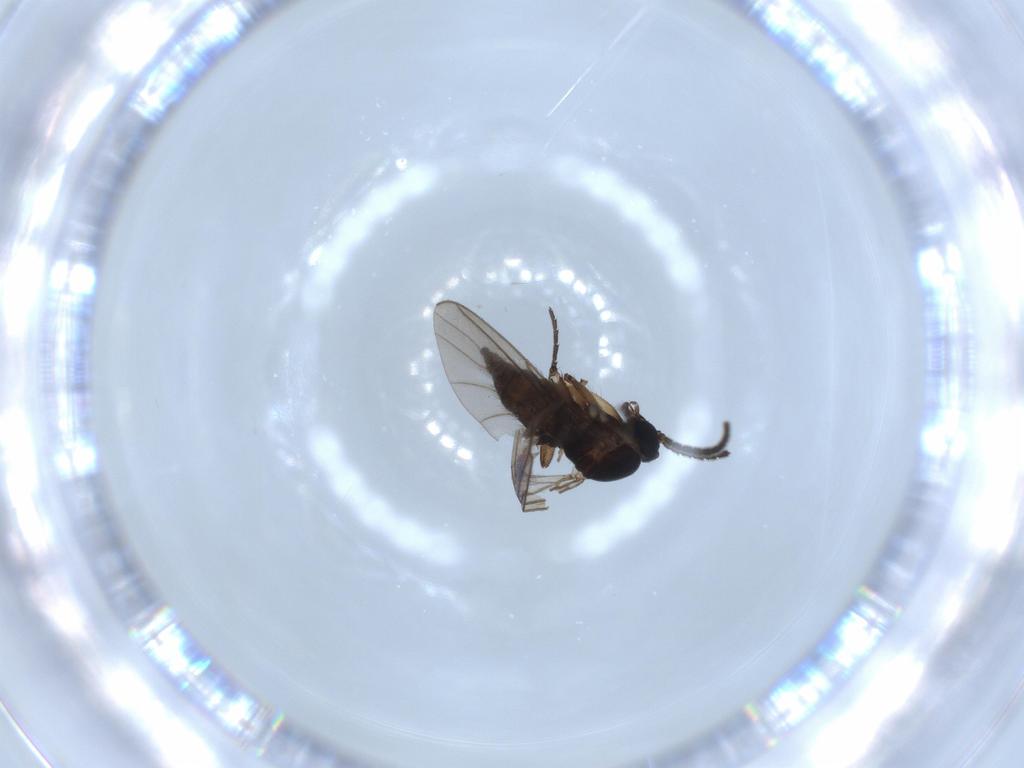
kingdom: Animalia
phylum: Arthropoda
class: Insecta
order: Diptera
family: Sciaridae
